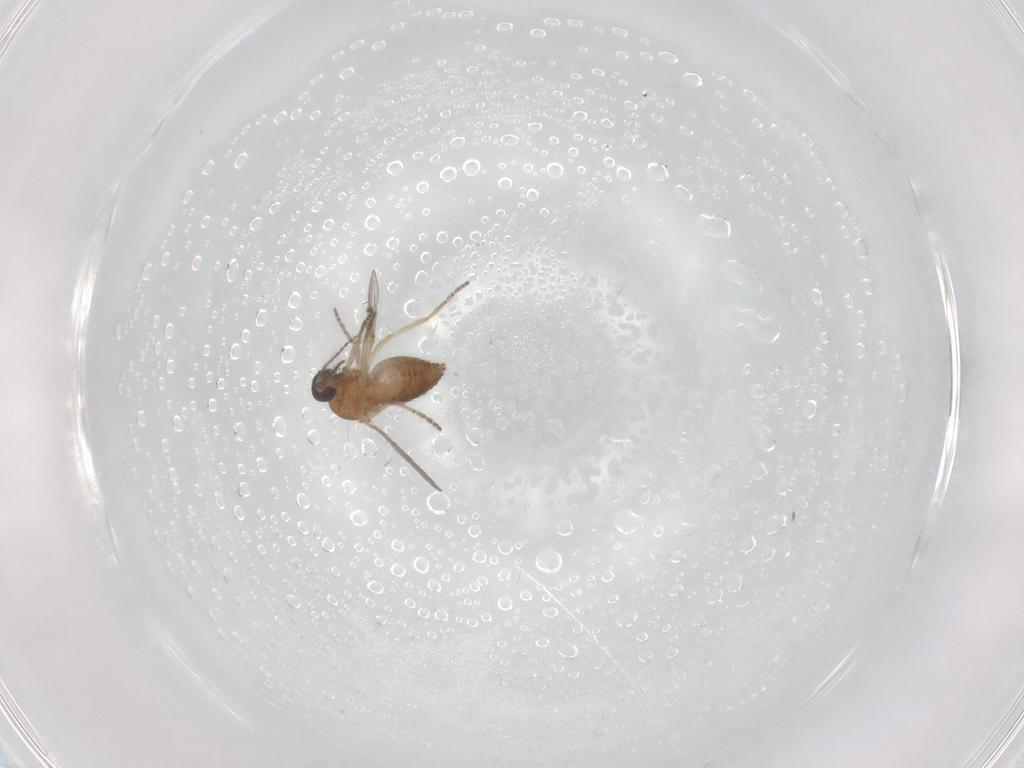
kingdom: Animalia
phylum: Arthropoda
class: Insecta
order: Diptera
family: Ceratopogonidae
